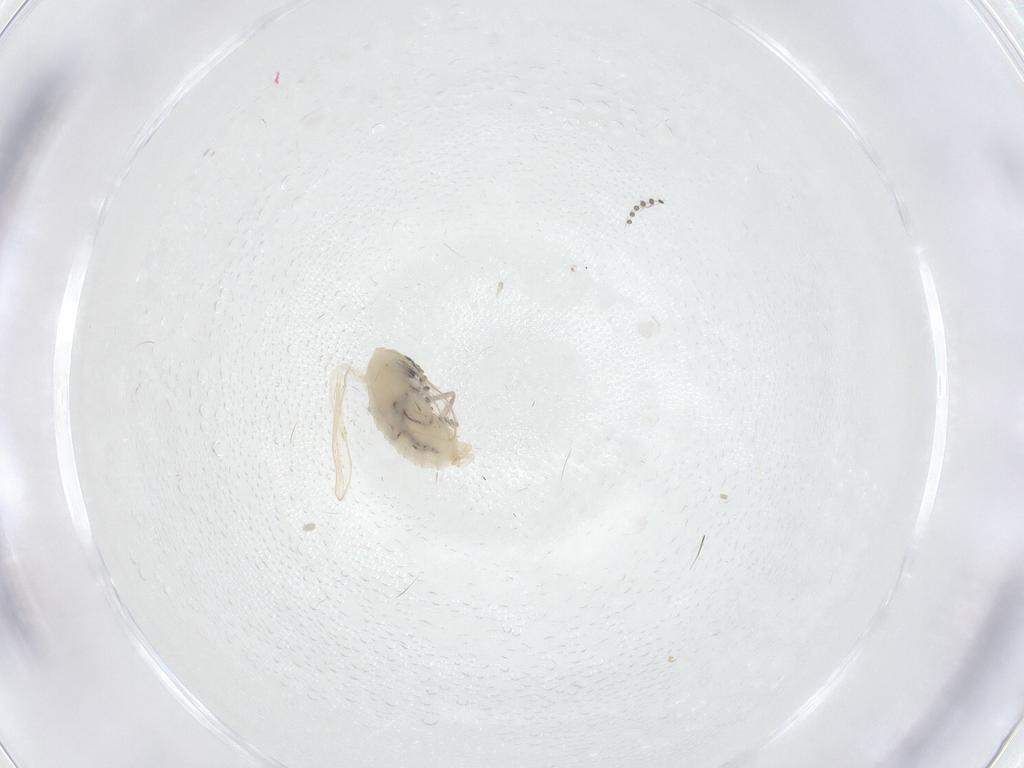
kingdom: Animalia
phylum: Arthropoda
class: Insecta
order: Diptera
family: Psychodidae
